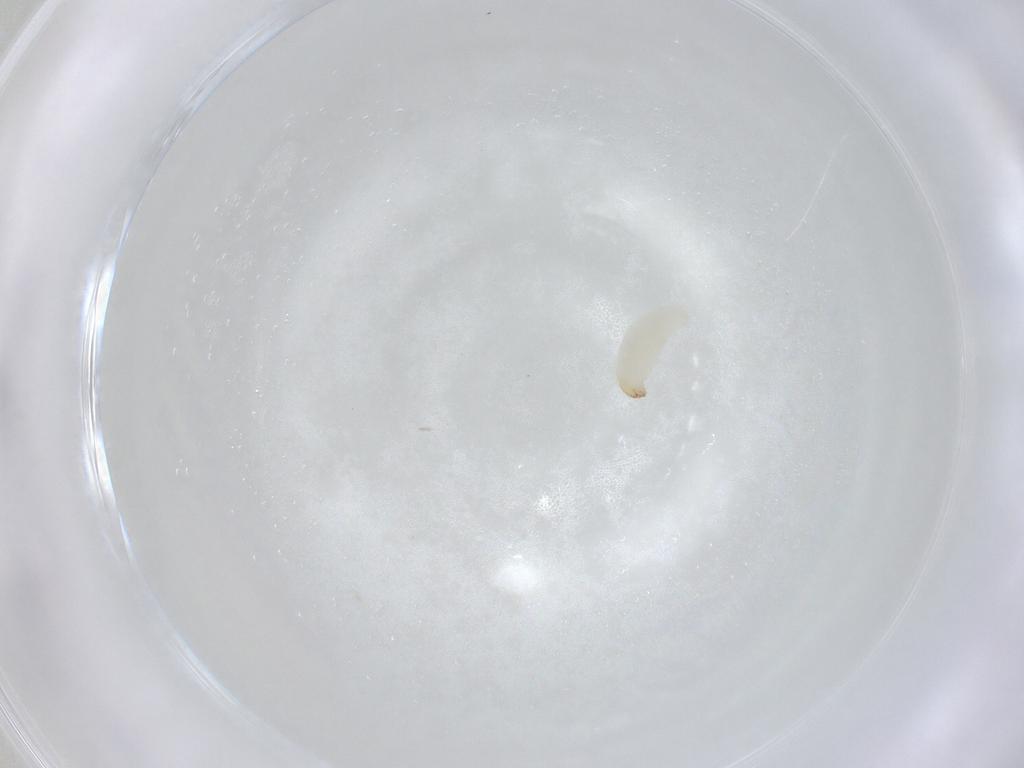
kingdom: Animalia
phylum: Arthropoda
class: Insecta
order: Coleoptera
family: Curculionidae
